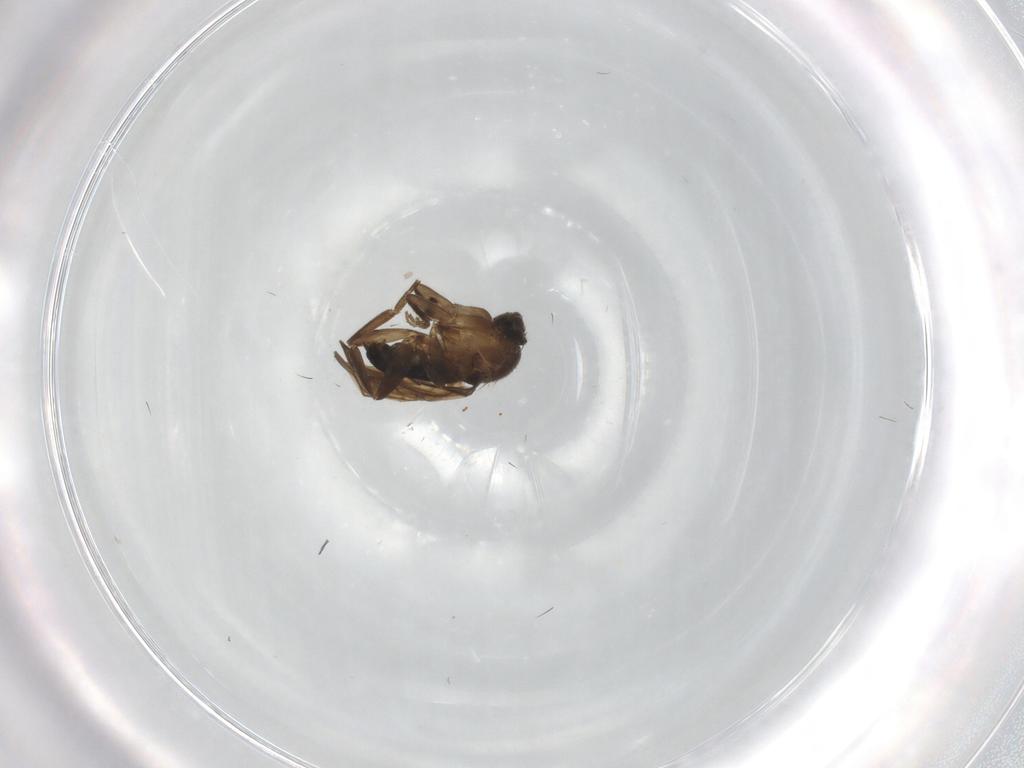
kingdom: Animalia
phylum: Arthropoda
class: Insecta
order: Diptera
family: Phoridae
